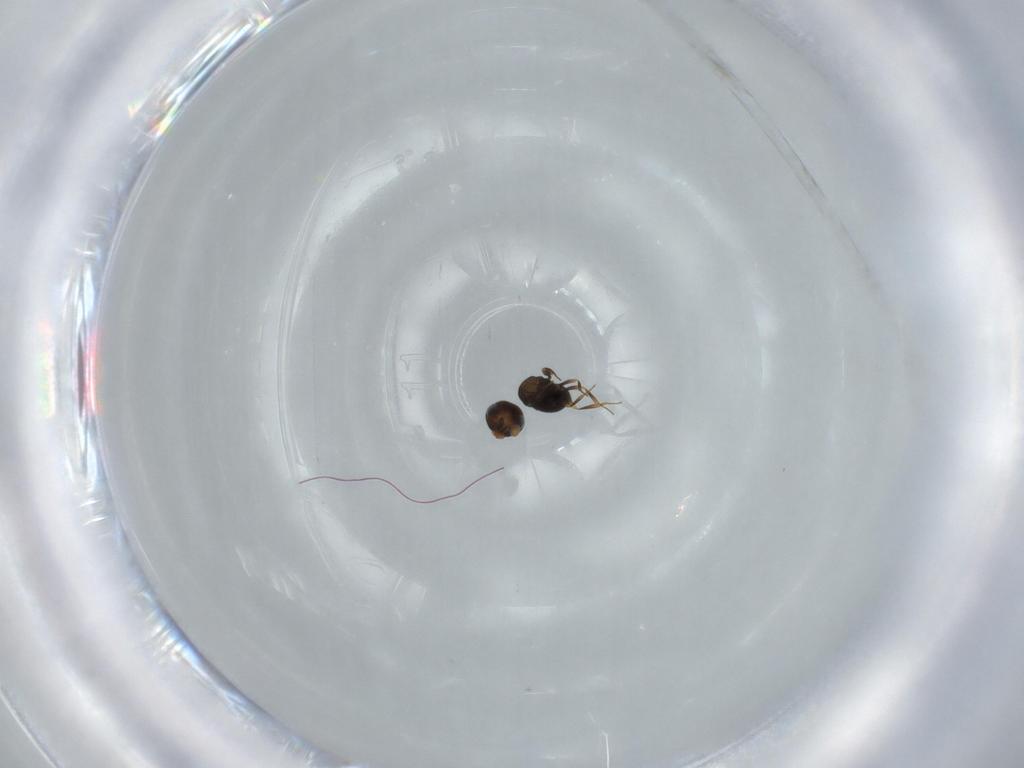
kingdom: Animalia
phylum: Arthropoda
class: Insecta
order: Hymenoptera
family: Scelionidae
